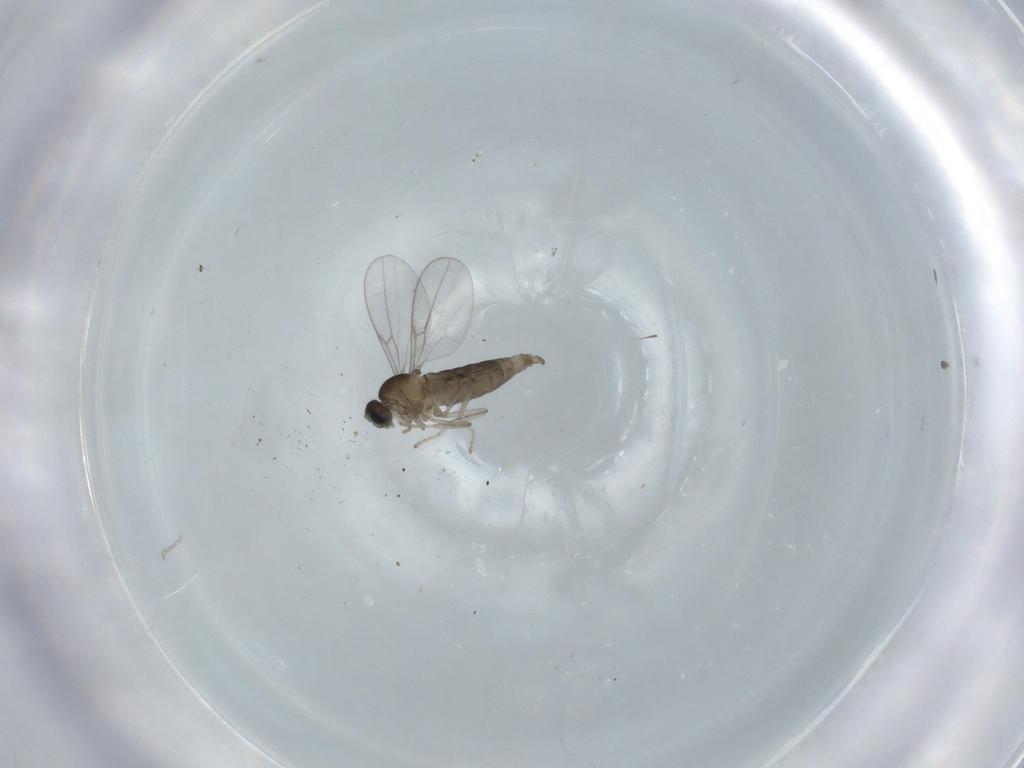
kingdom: Animalia
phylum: Arthropoda
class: Insecta
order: Diptera
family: Cecidomyiidae
